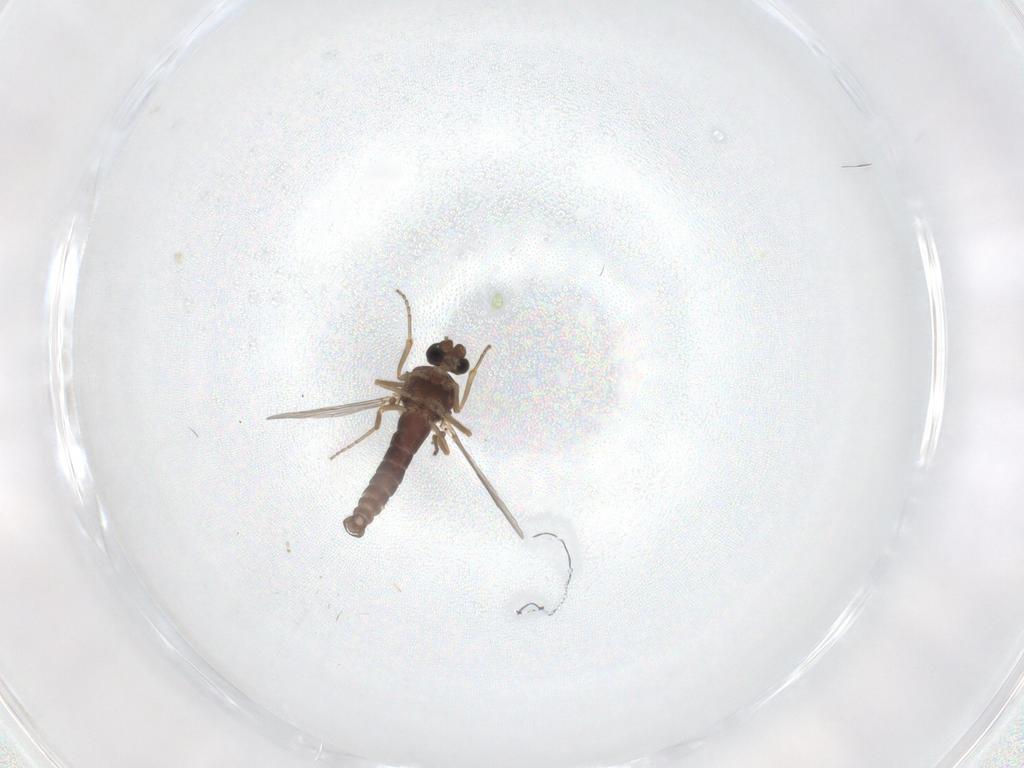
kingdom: Animalia
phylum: Arthropoda
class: Insecta
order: Diptera
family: Ceratopogonidae
